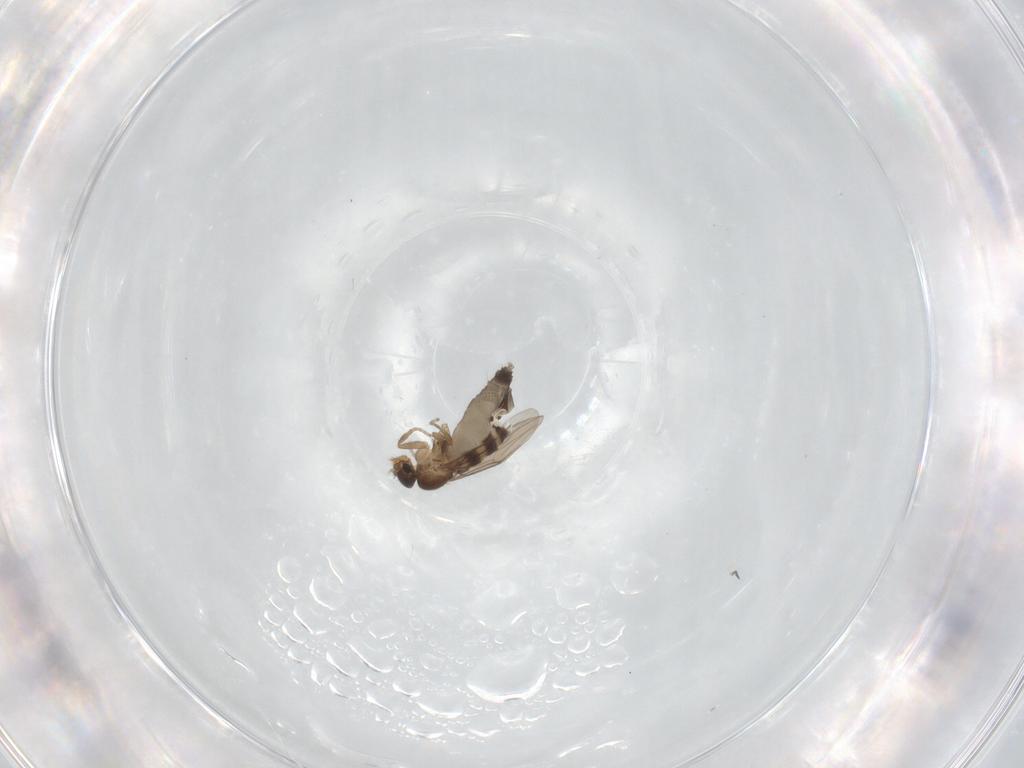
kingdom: Animalia
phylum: Arthropoda
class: Insecta
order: Diptera
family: Phoridae
